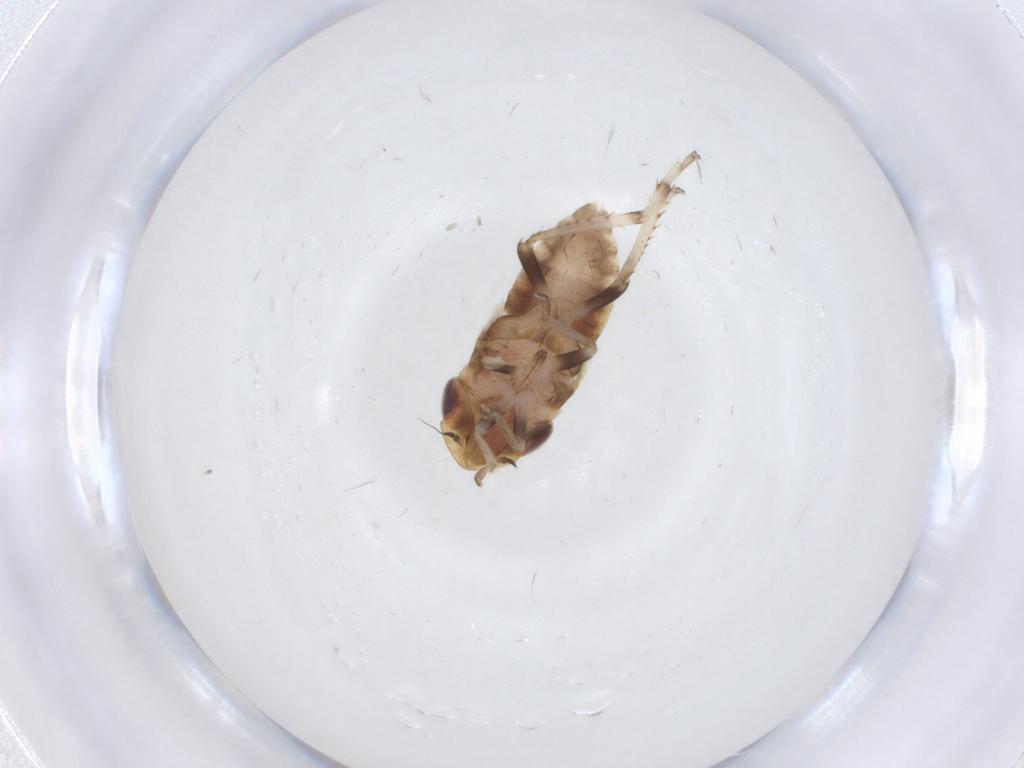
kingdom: Animalia
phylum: Arthropoda
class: Insecta
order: Hemiptera
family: Cicadellidae
